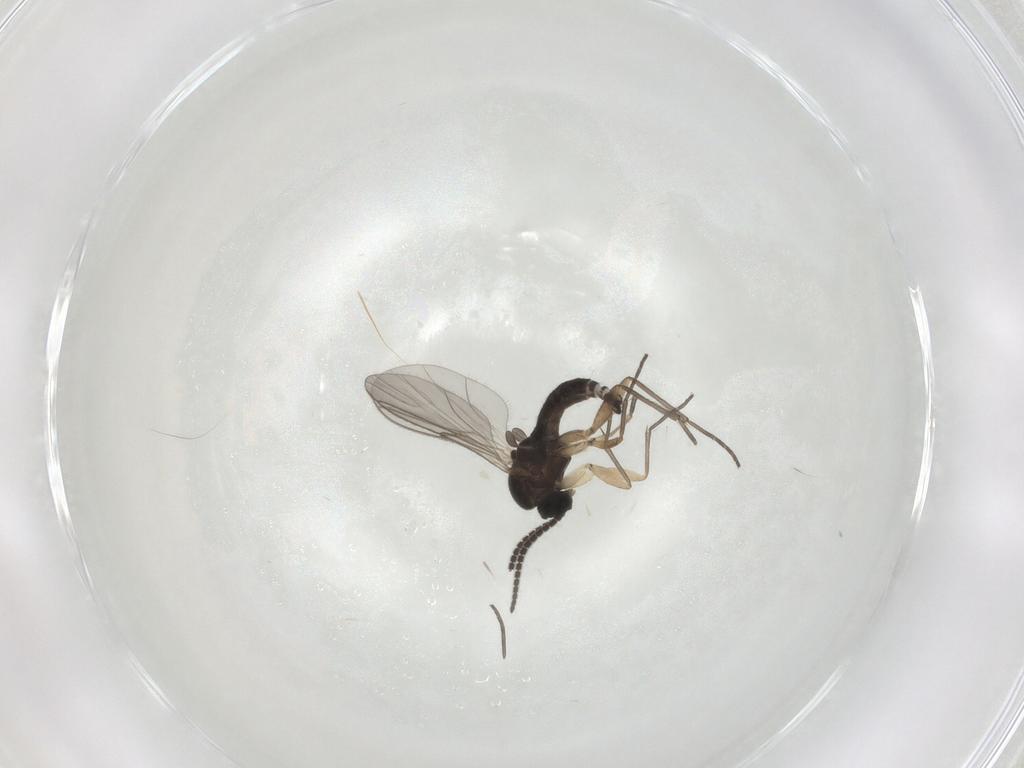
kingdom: Animalia
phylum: Arthropoda
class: Insecta
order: Diptera
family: Sciaridae
